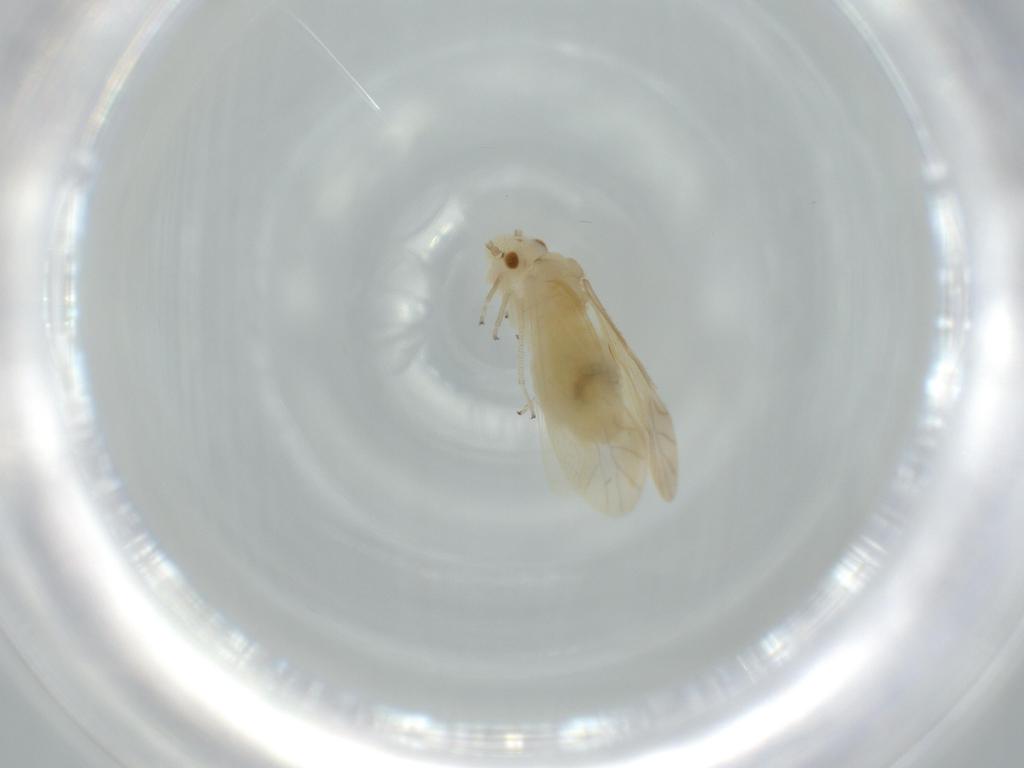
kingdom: Animalia
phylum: Arthropoda
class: Insecta
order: Psocodea
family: Caeciliusidae
